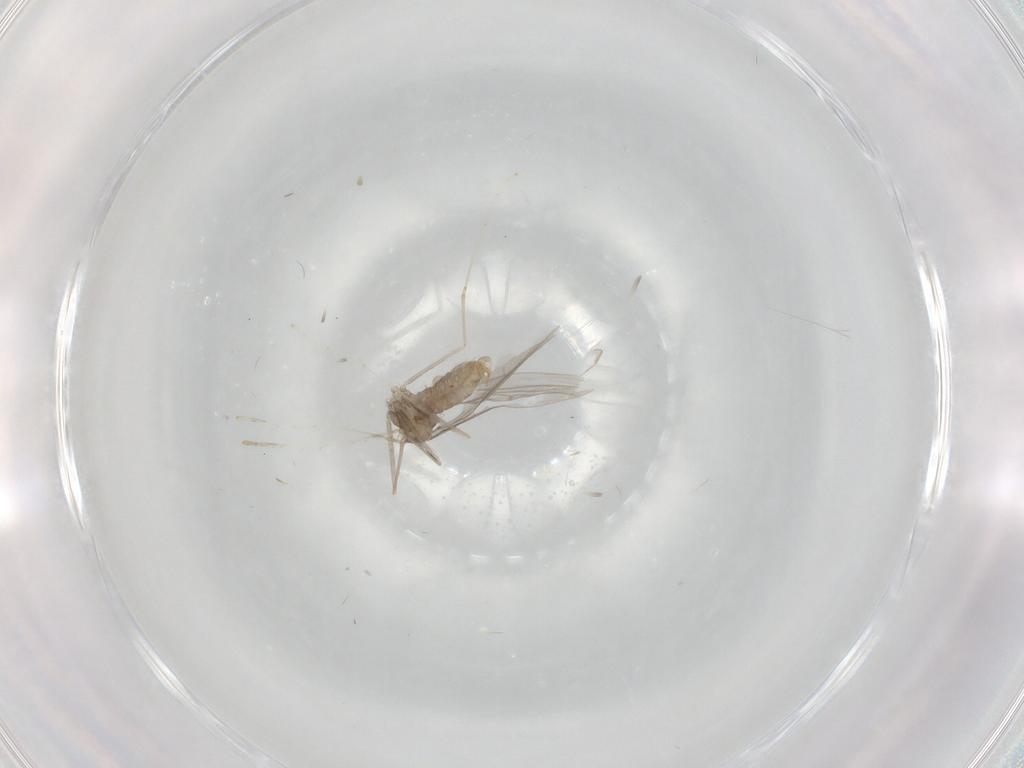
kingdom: Animalia
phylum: Arthropoda
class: Insecta
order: Diptera
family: Cecidomyiidae
